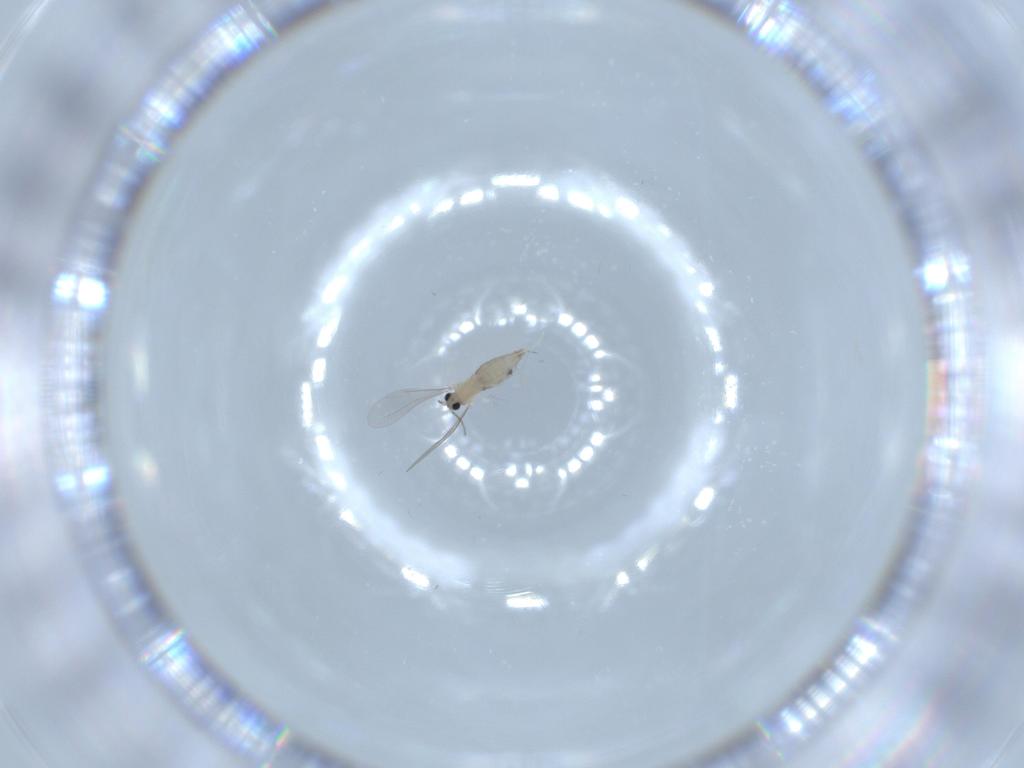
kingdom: Animalia
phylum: Arthropoda
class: Insecta
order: Diptera
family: Cecidomyiidae
